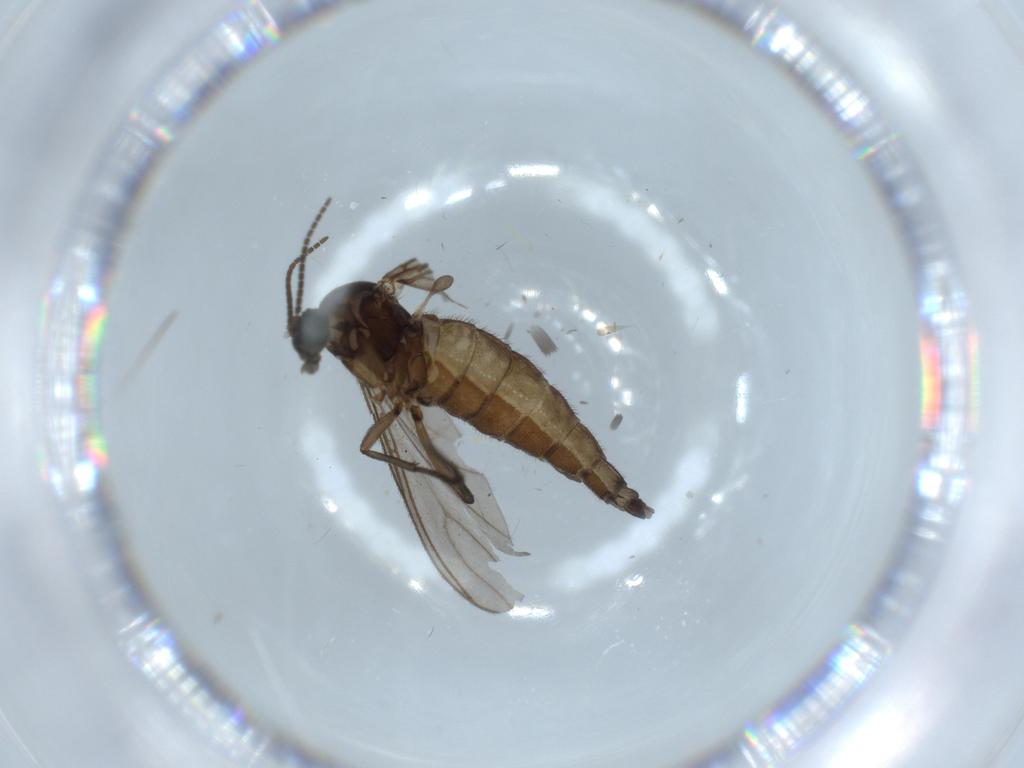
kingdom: Animalia
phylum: Arthropoda
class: Insecta
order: Diptera
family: Sciaridae
